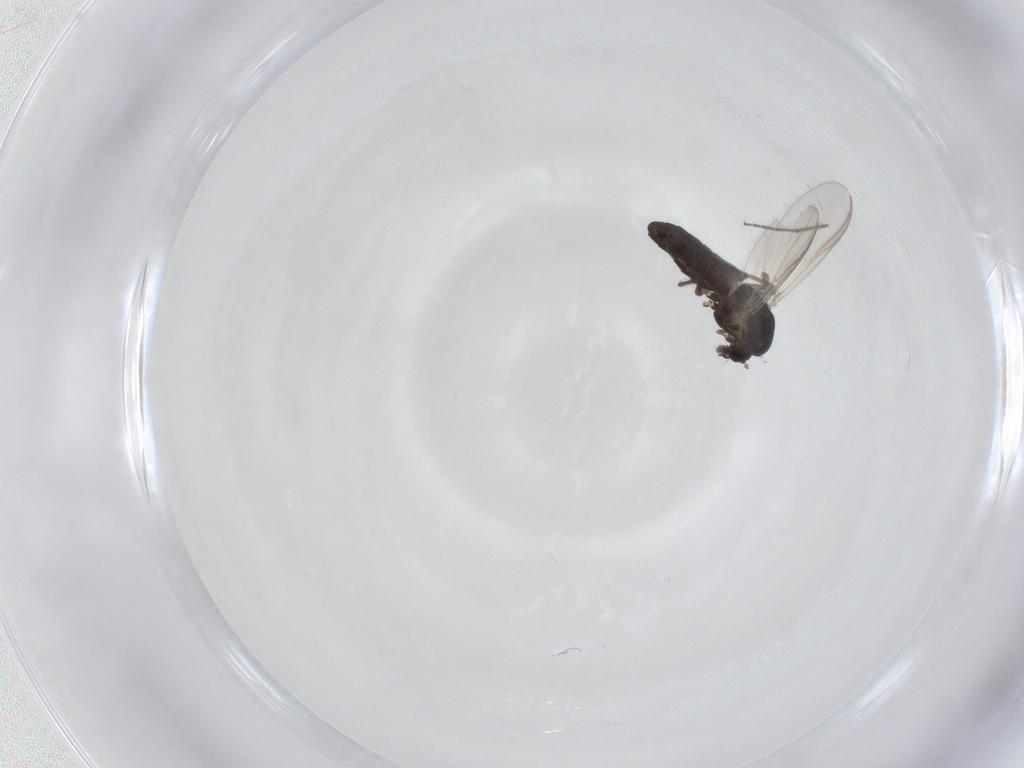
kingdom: Animalia
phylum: Arthropoda
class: Insecta
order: Diptera
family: Chironomidae
